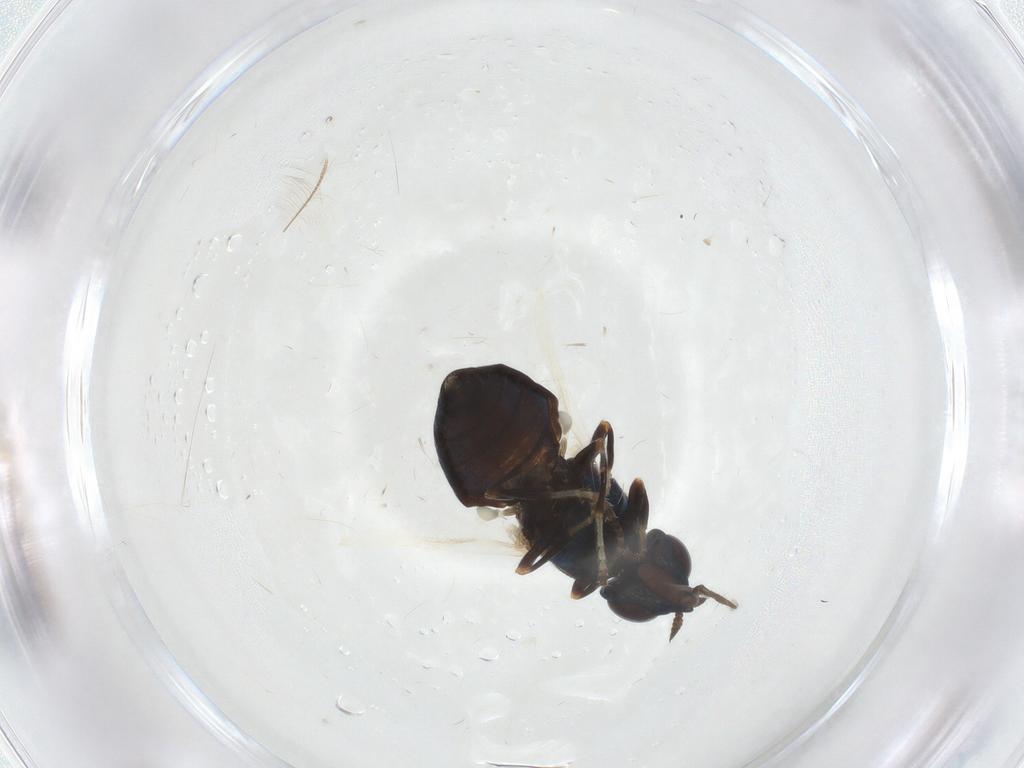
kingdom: Animalia
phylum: Arthropoda
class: Insecta
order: Diptera
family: Stratiomyidae
